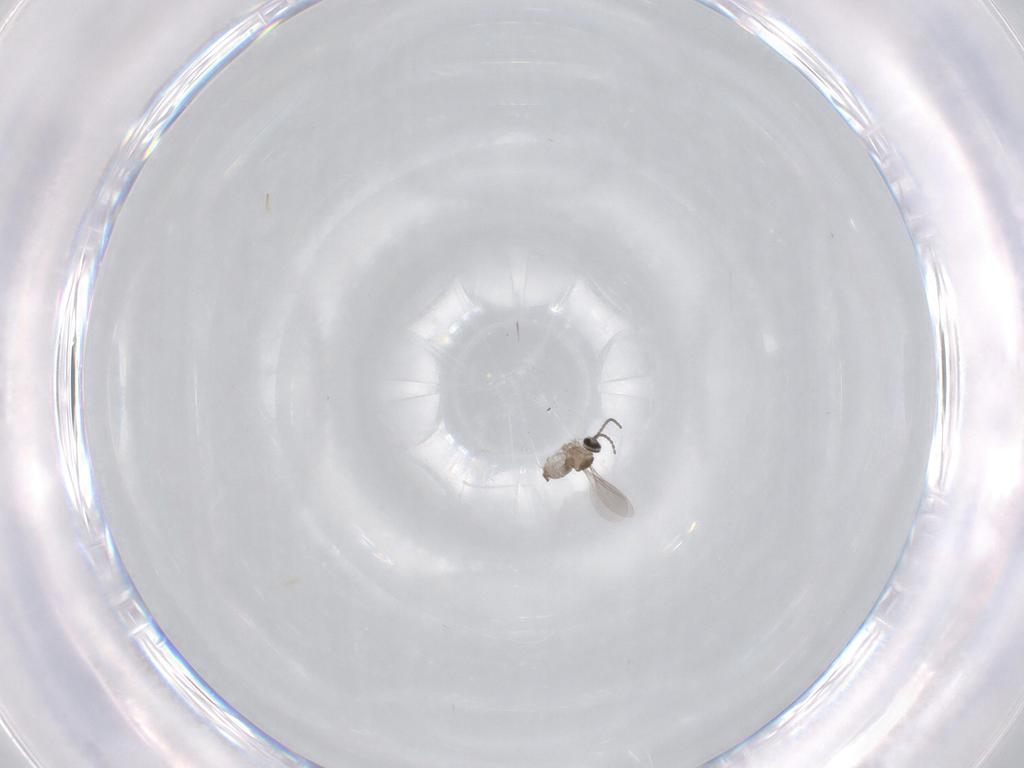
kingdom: Animalia
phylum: Arthropoda
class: Insecta
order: Diptera
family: Cecidomyiidae
